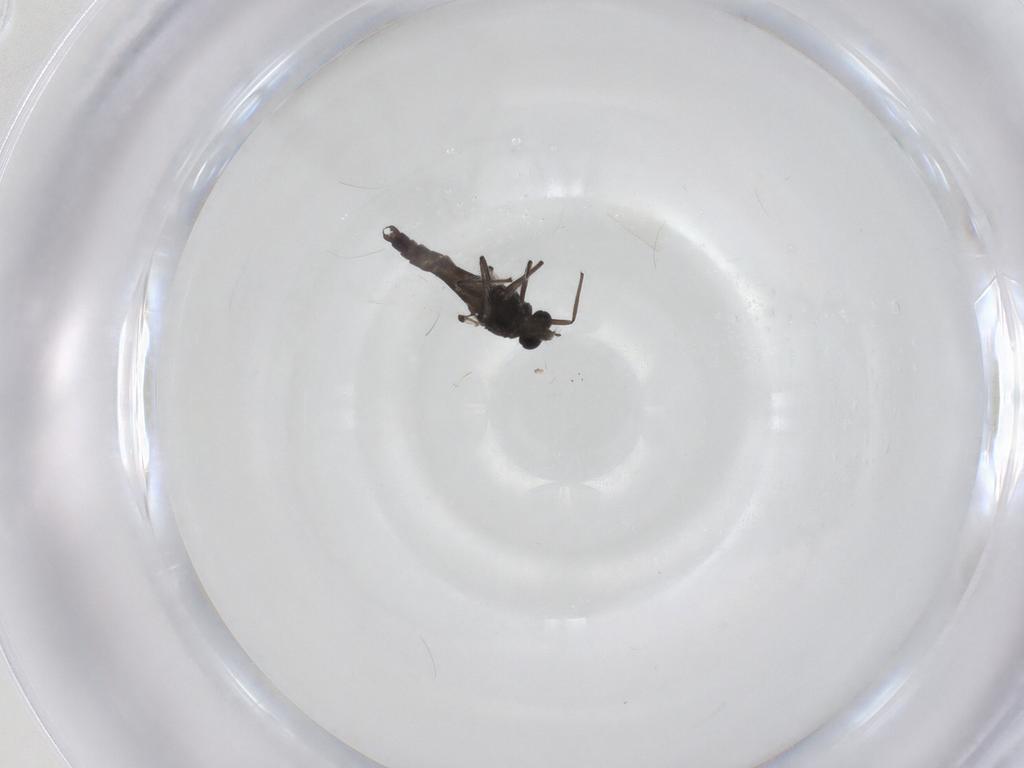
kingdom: Animalia
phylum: Arthropoda
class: Insecta
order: Diptera
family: Chironomidae
